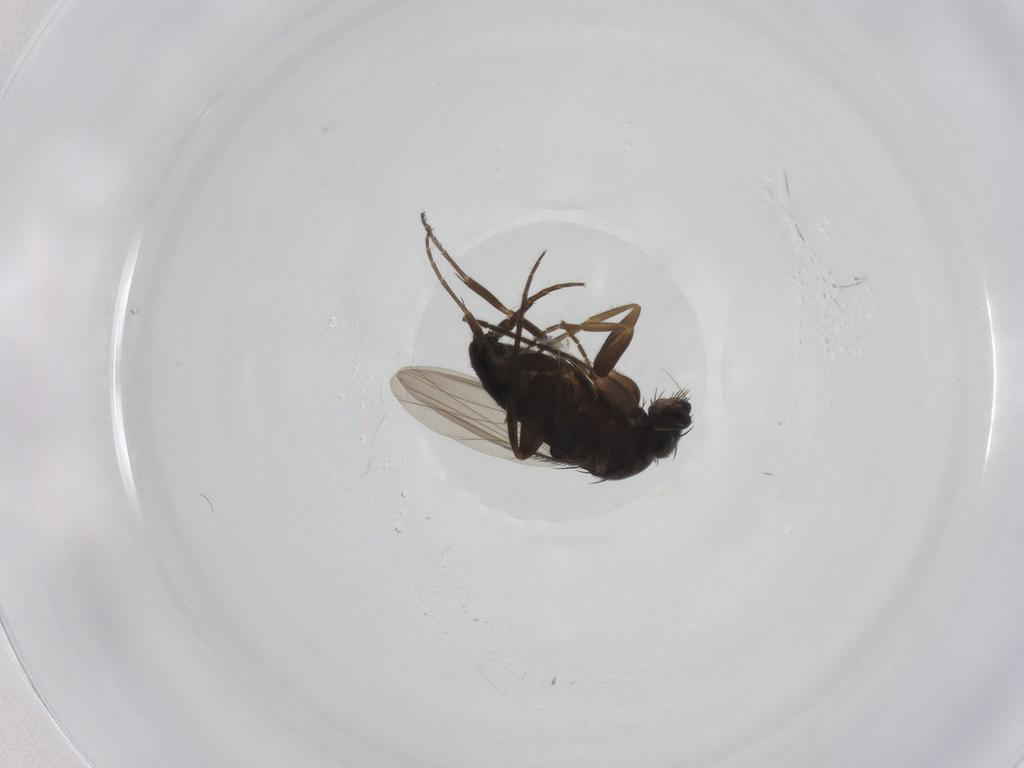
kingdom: Animalia
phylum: Arthropoda
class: Insecta
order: Diptera
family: Sciaridae
